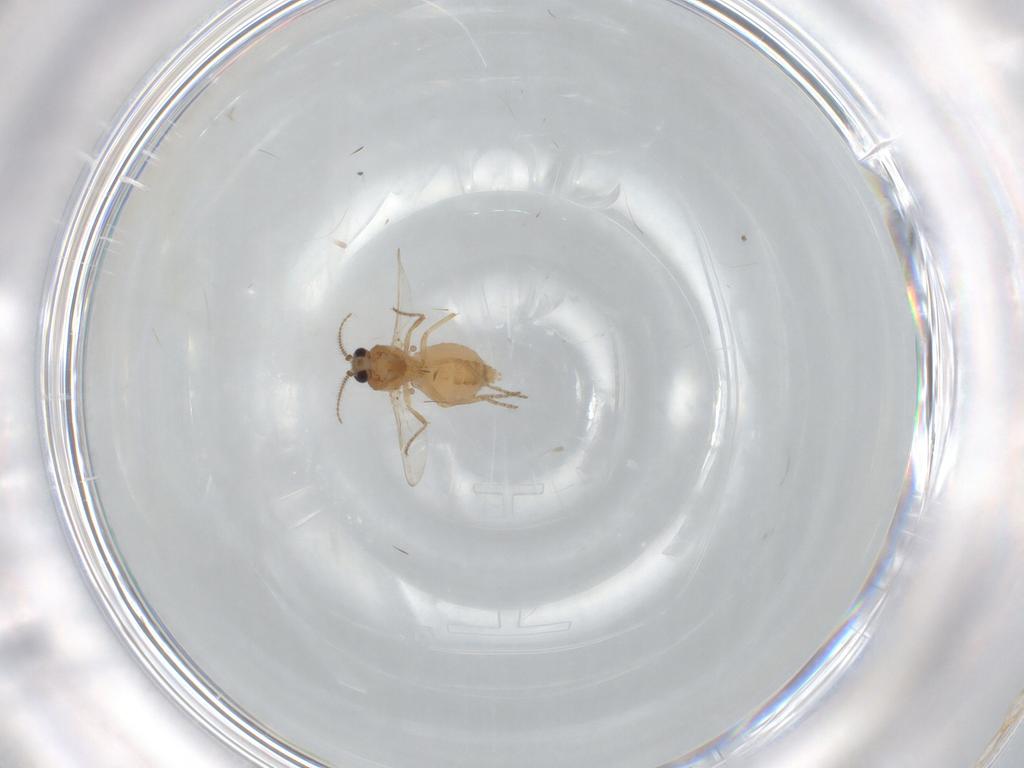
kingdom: Animalia
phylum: Arthropoda
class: Insecta
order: Diptera
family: Ceratopogonidae
